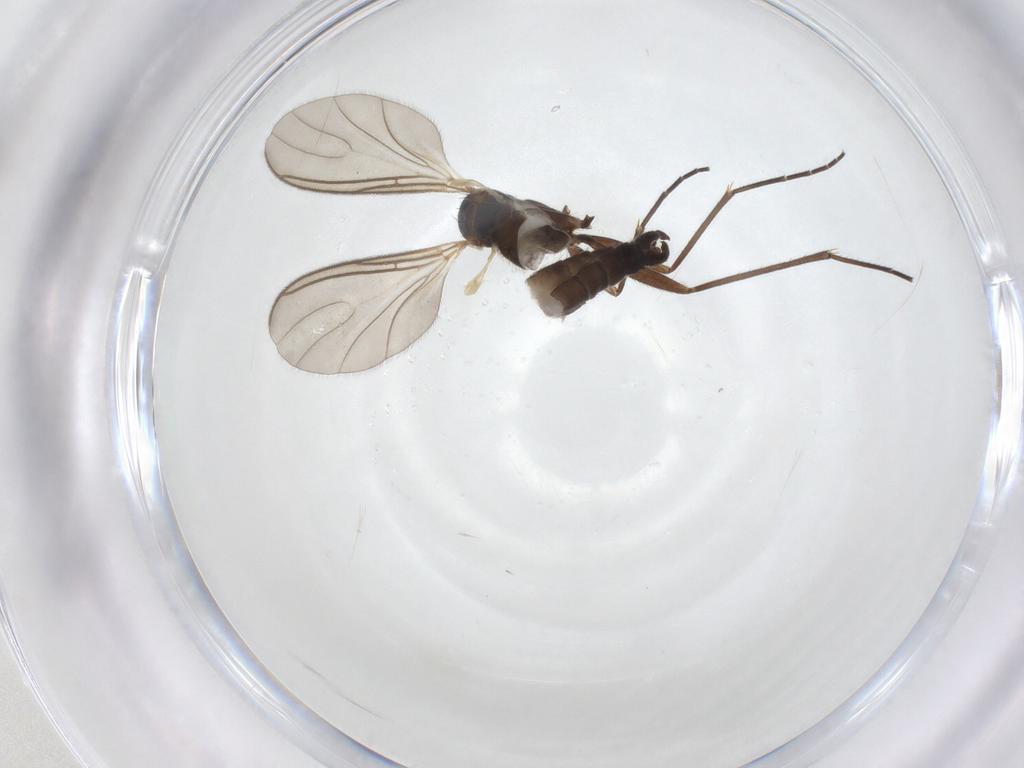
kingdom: Animalia
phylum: Arthropoda
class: Insecta
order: Diptera
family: Sciaridae
